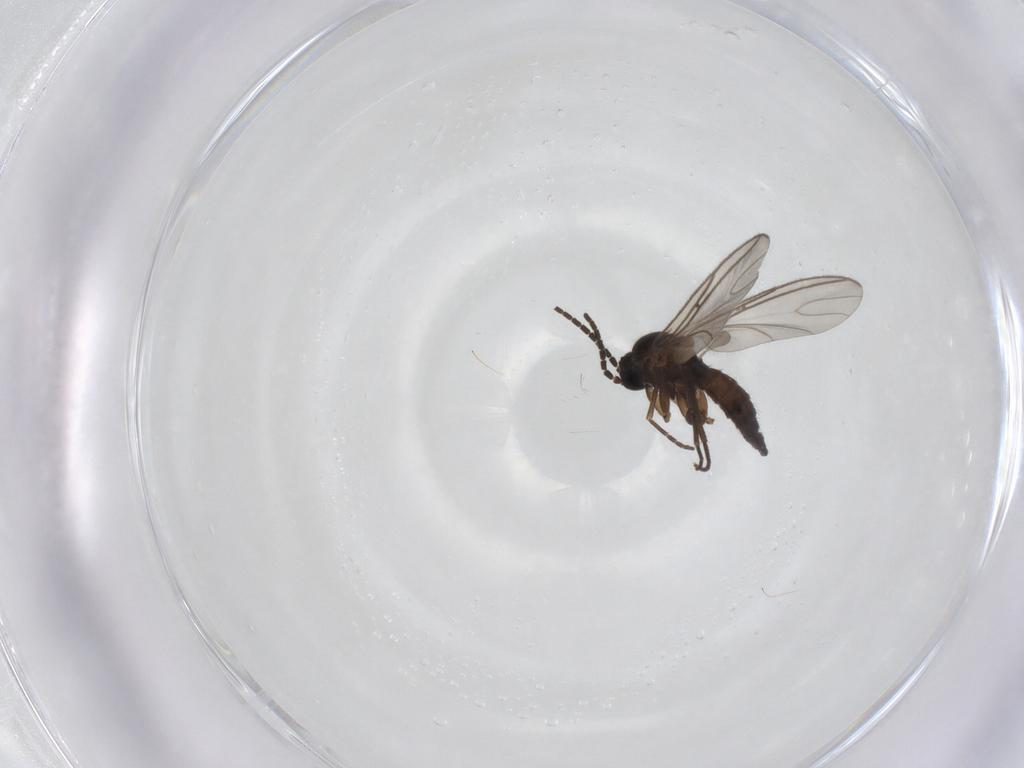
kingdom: Animalia
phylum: Arthropoda
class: Insecta
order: Diptera
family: Sciaridae
